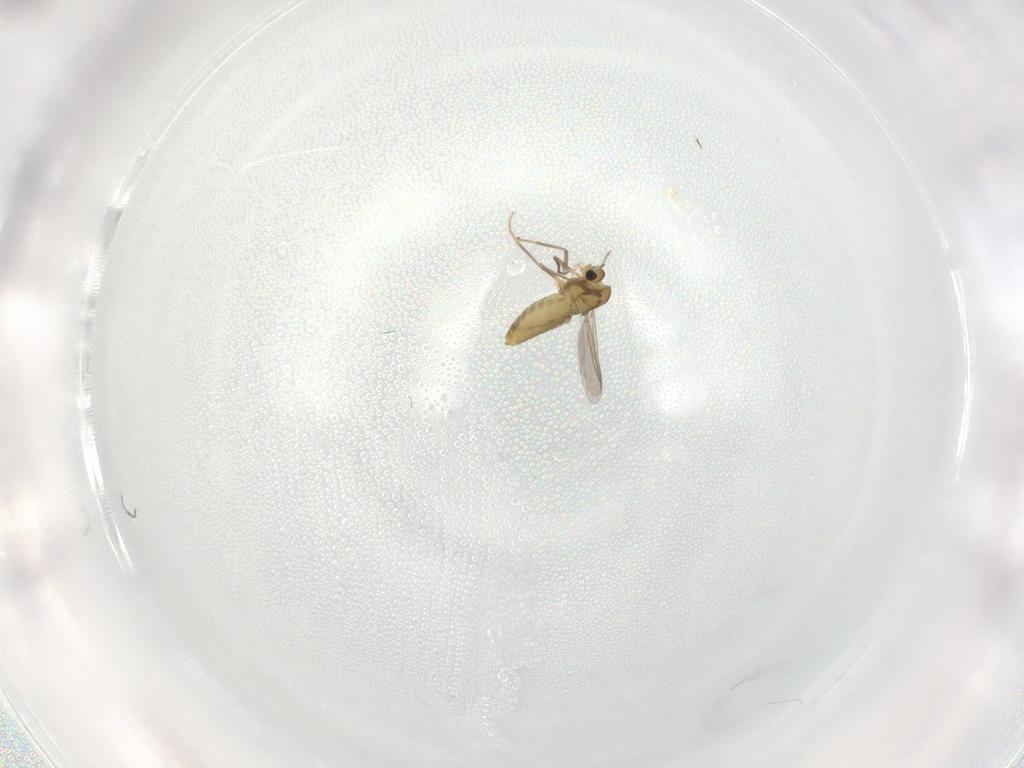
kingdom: Animalia
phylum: Arthropoda
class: Insecta
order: Diptera
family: Chironomidae
